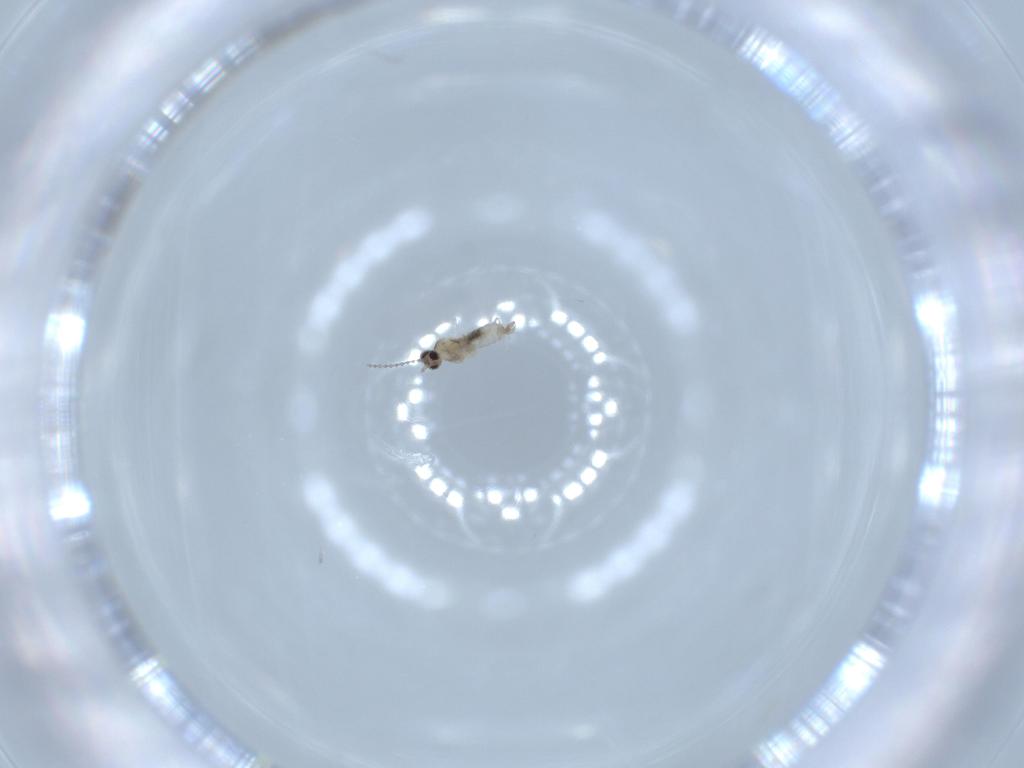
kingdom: Animalia
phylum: Arthropoda
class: Insecta
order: Diptera
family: Cecidomyiidae
